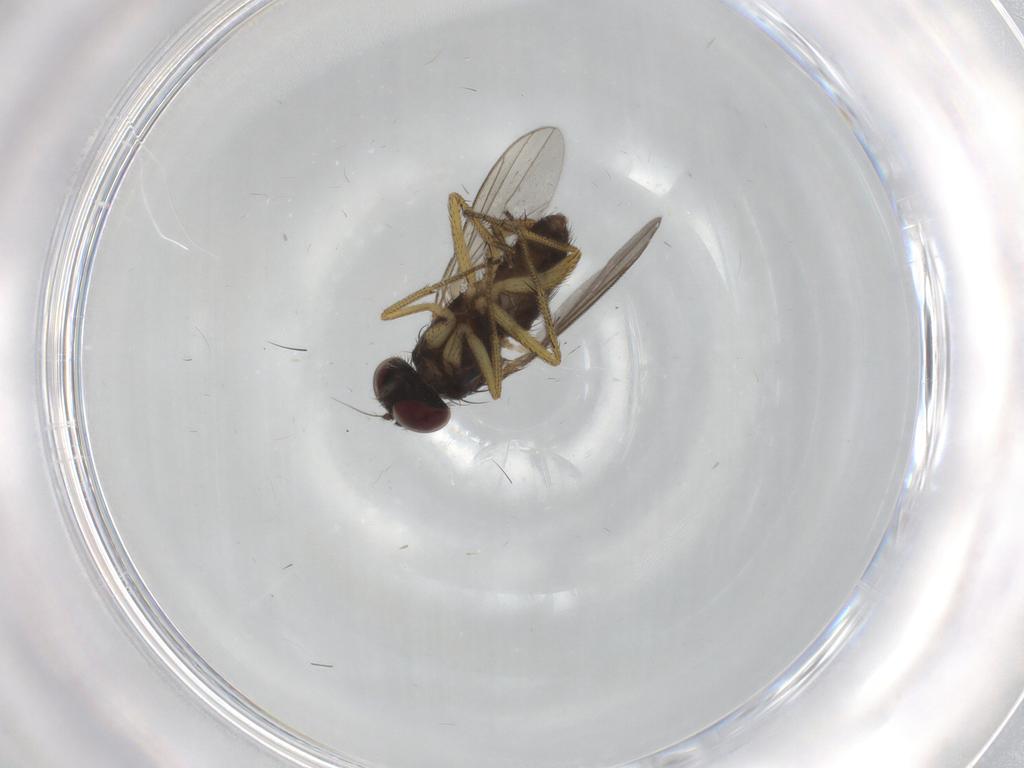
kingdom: Animalia
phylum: Arthropoda
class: Insecta
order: Diptera
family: Dolichopodidae
